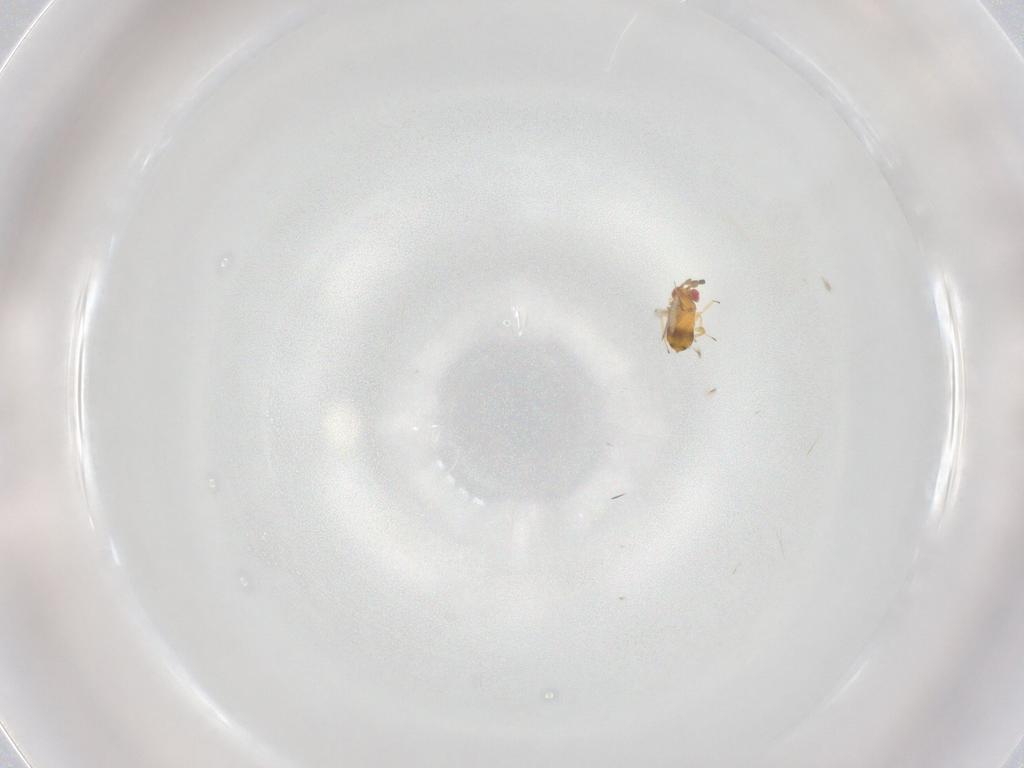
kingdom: Animalia
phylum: Arthropoda
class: Insecta
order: Hymenoptera
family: Trichogrammatidae
